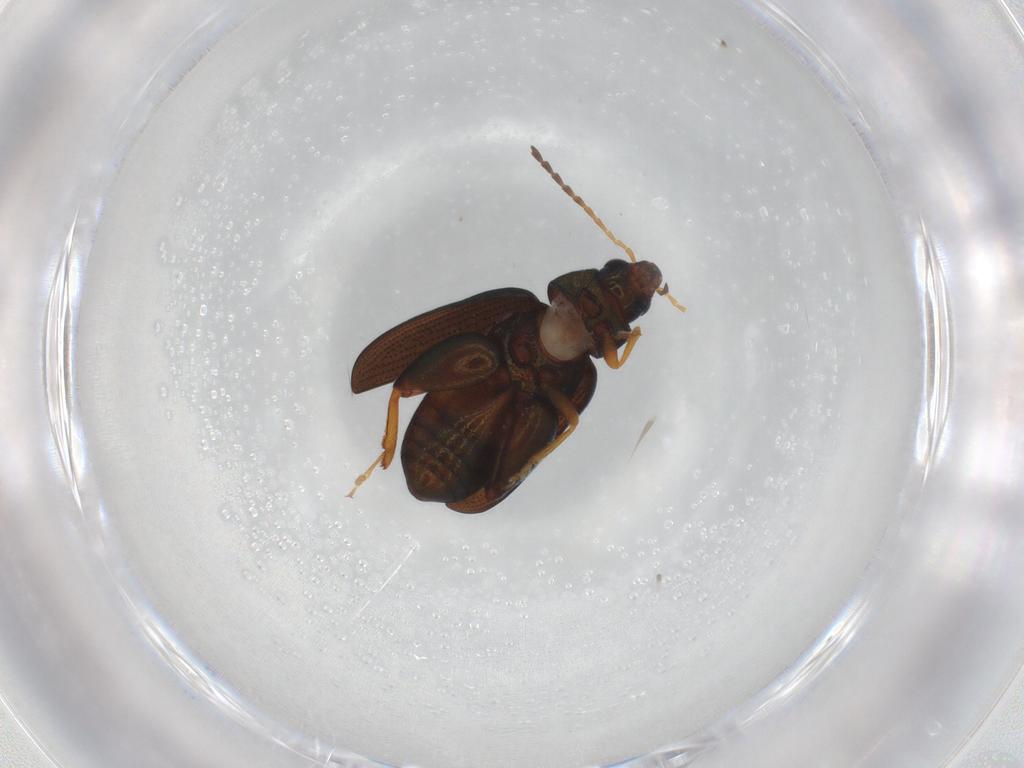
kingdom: Animalia
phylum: Arthropoda
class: Insecta
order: Coleoptera
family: Chrysomelidae
